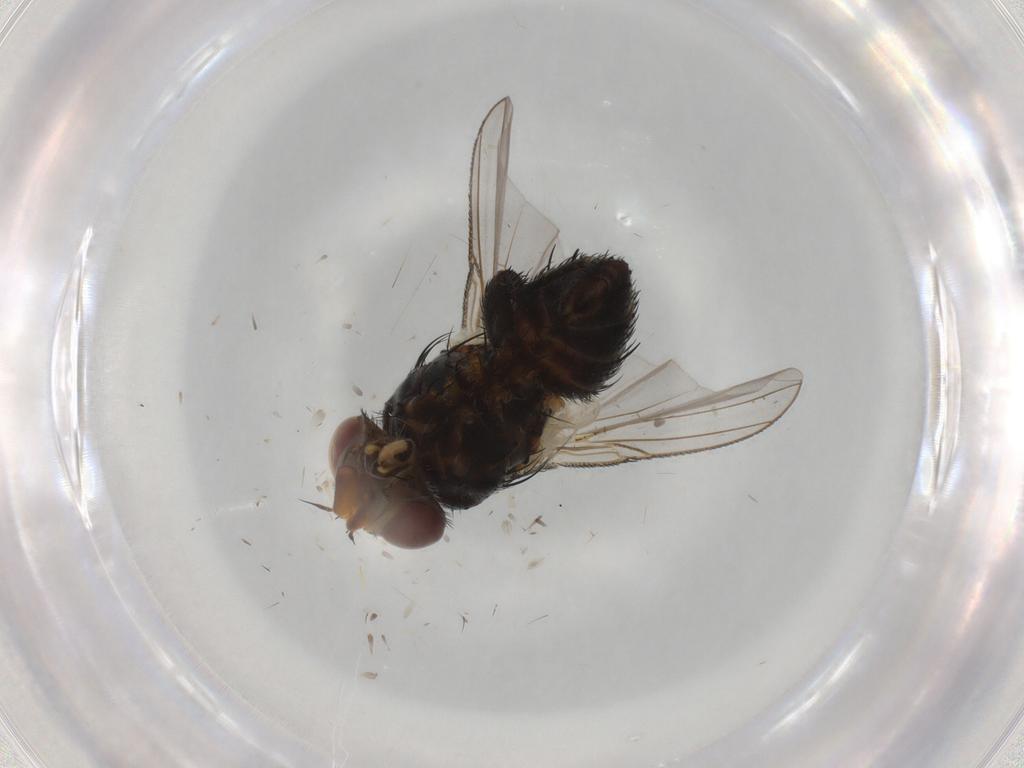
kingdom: Animalia
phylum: Arthropoda
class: Insecta
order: Diptera
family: Tachinidae
